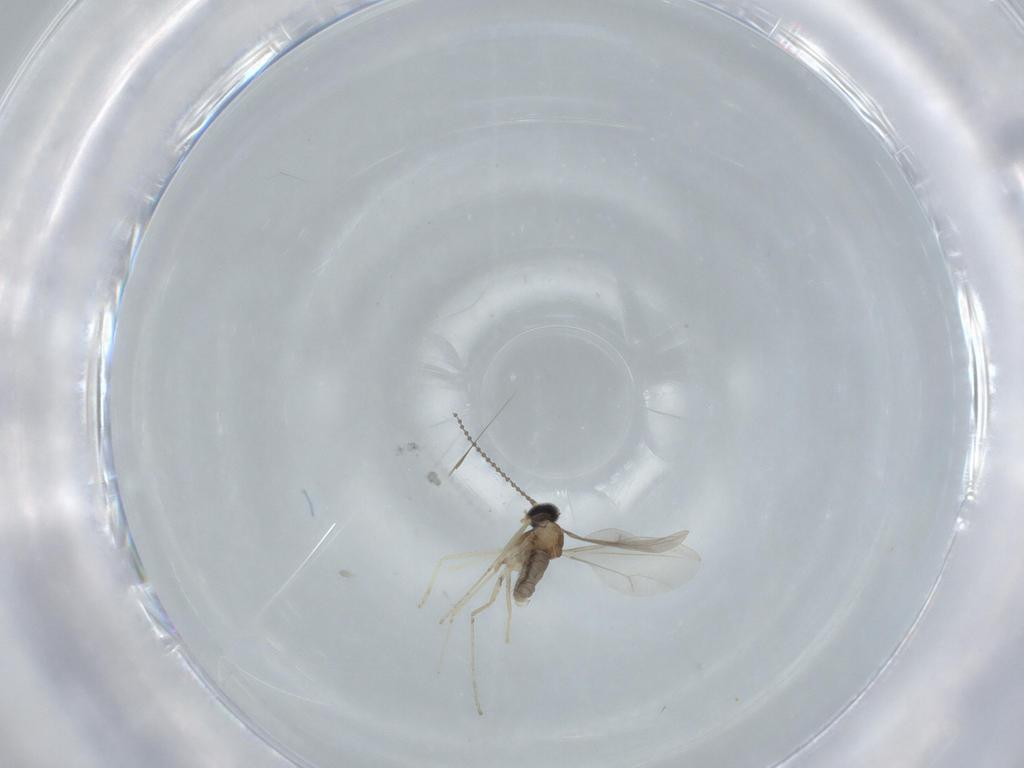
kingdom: Animalia
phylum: Arthropoda
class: Insecta
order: Diptera
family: Cecidomyiidae
